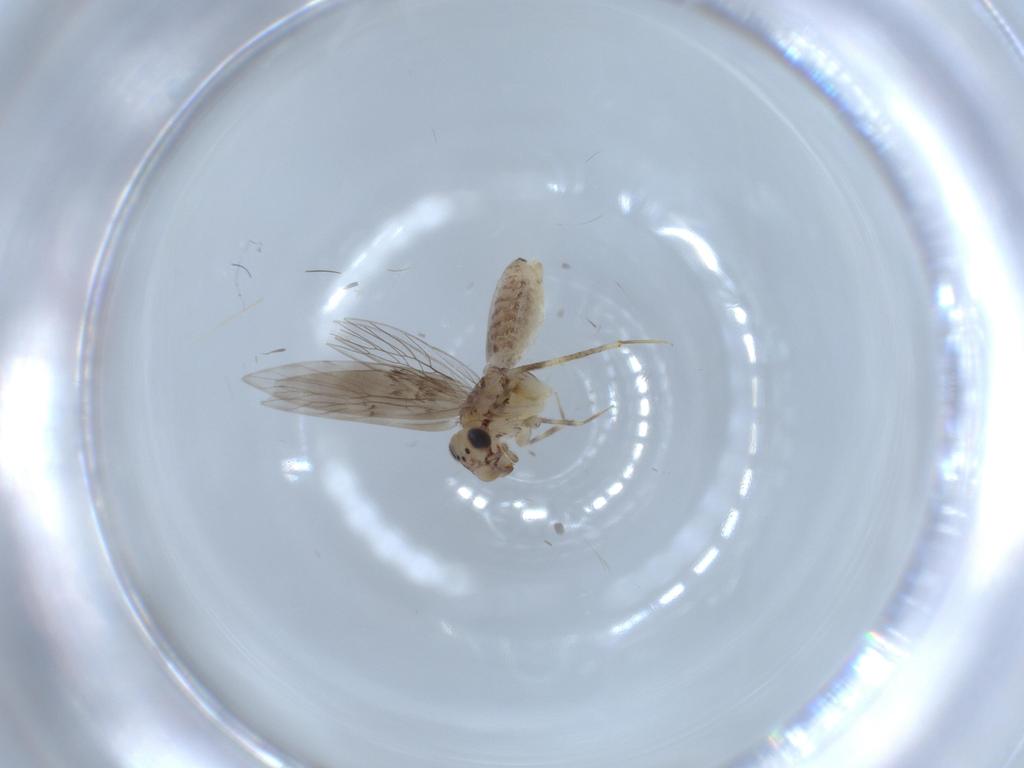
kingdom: Animalia
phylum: Arthropoda
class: Insecta
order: Psocodea
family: Lepidopsocidae
